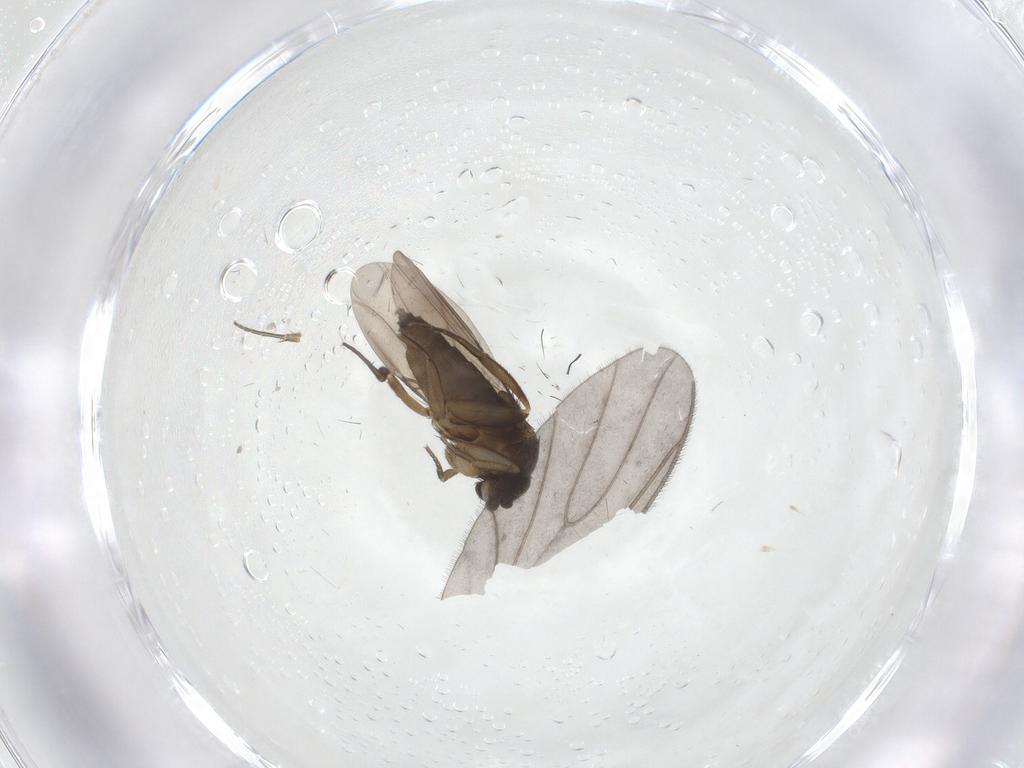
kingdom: Animalia
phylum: Arthropoda
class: Insecta
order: Diptera
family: Phoridae
